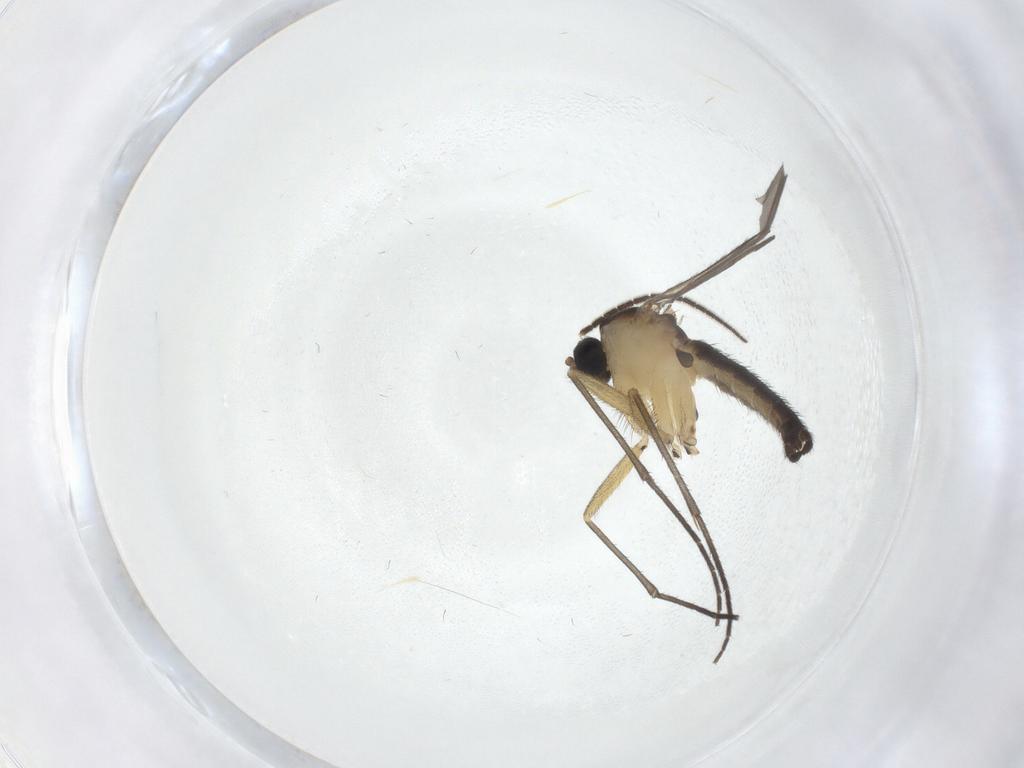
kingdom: Animalia
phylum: Arthropoda
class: Insecta
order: Diptera
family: Sciaridae
